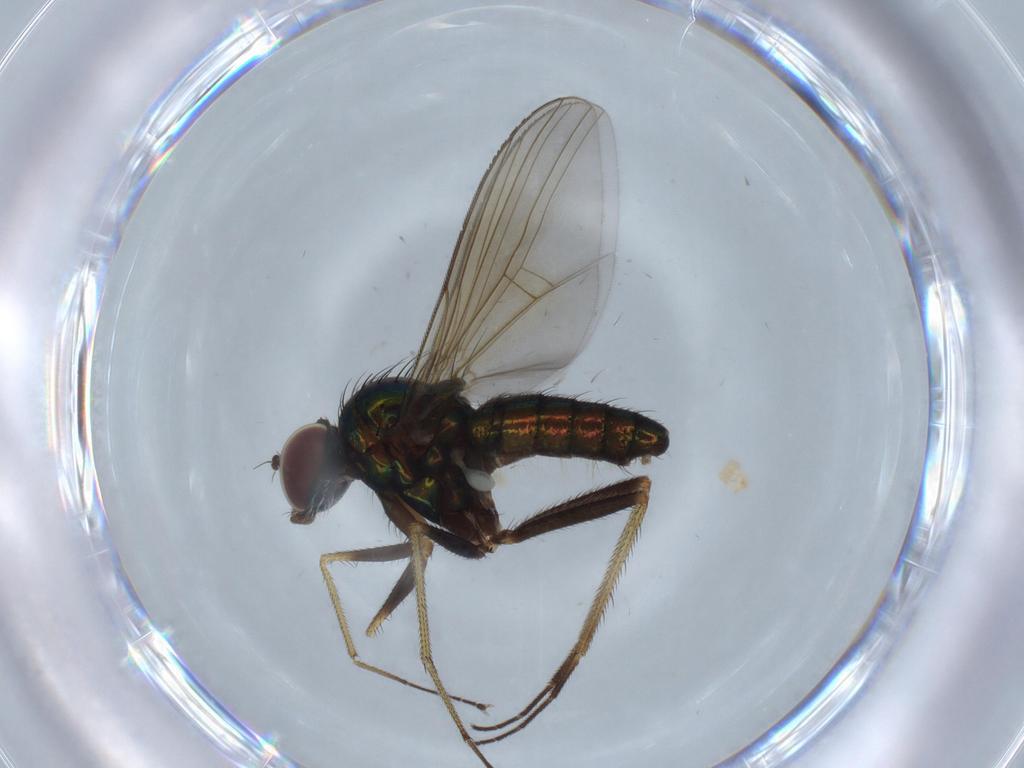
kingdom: Animalia
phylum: Arthropoda
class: Insecta
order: Diptera
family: Dolichopodidae
